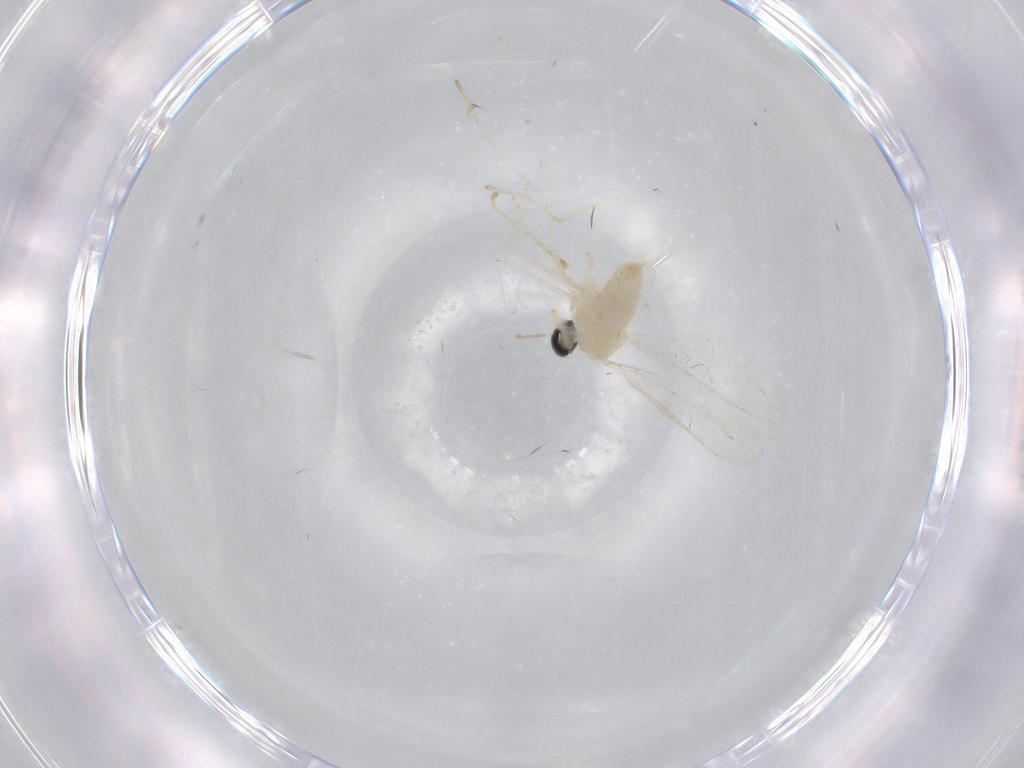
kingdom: Animalia
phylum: Arthropoda
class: Insecta
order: Diptera
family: Cecidomyiidae
